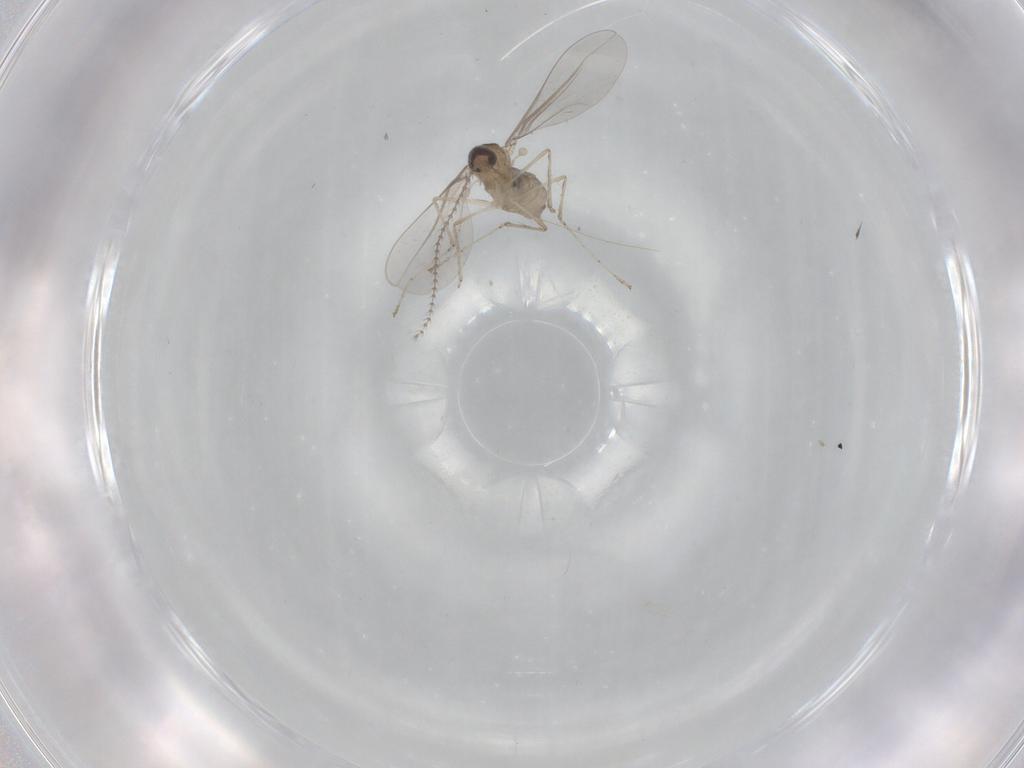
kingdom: Animalia
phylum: Arthropoda
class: Insecta
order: Diptera
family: Cecidomyiidae
